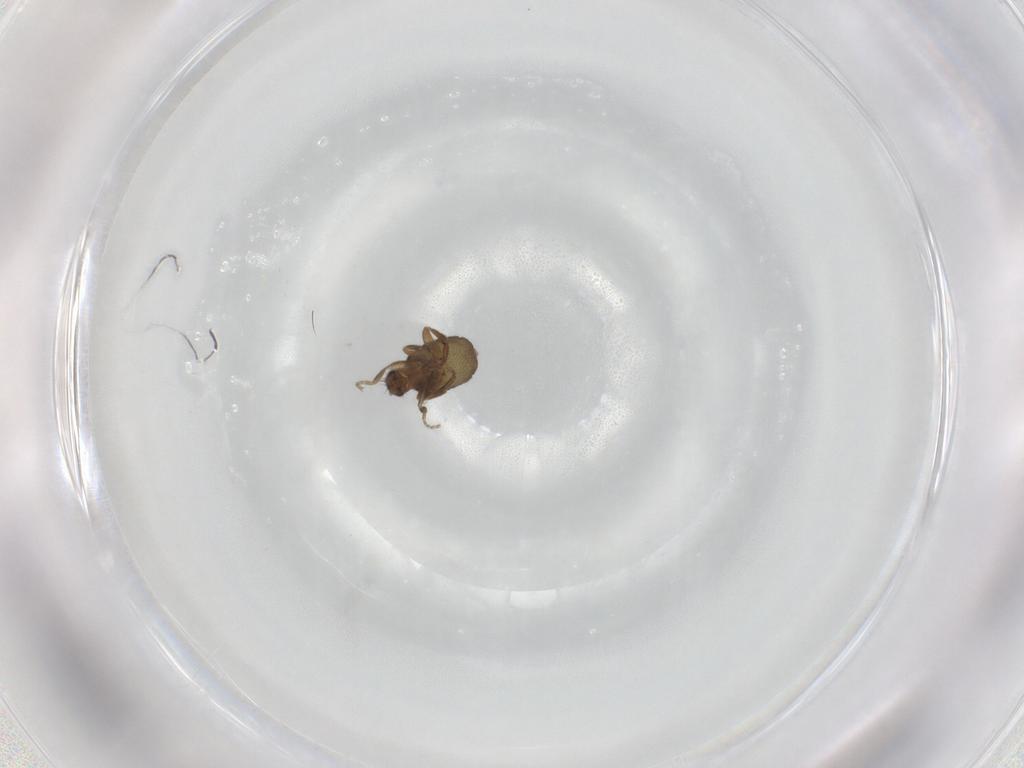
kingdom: Animalia
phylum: Arthropoda
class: Insecta
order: Diptera
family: Phoridae
